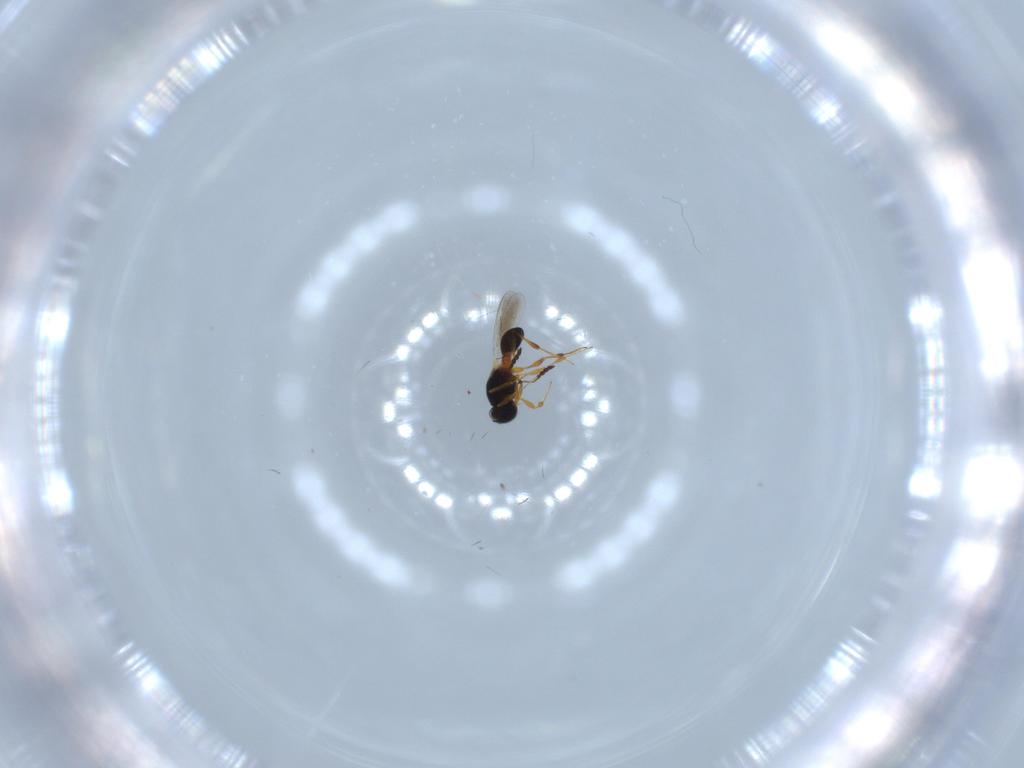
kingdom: Animalia
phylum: Arthropoda
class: Insecta
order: Hymenoptera
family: Platygastridae
